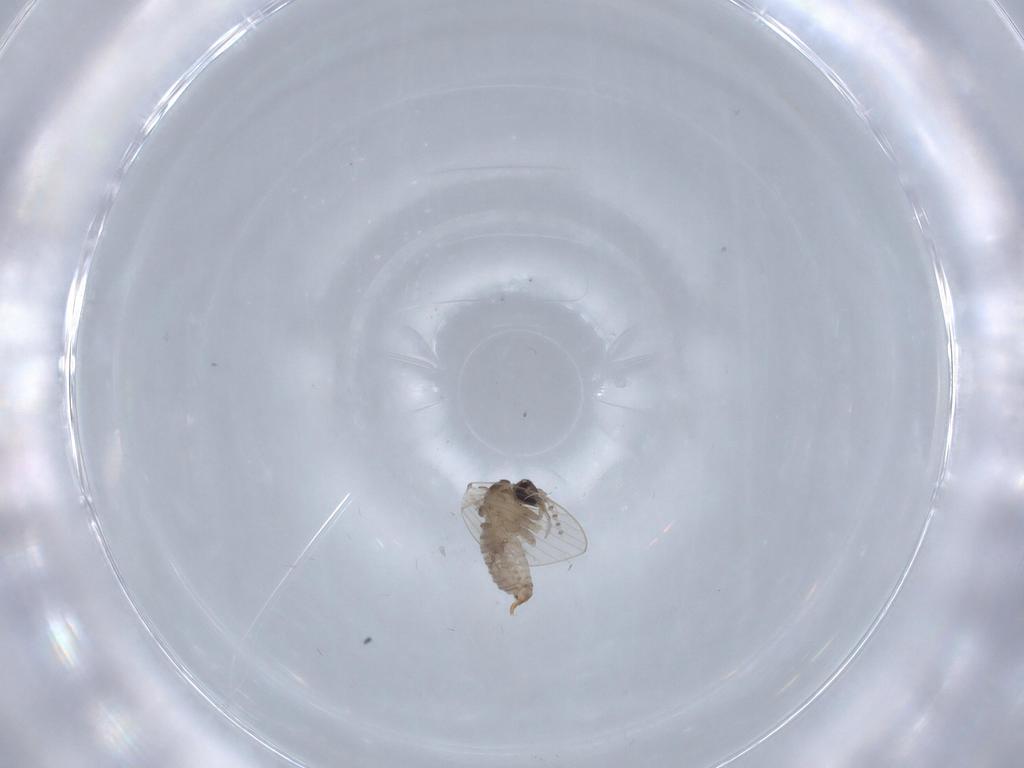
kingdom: Animalia
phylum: Arthropoda
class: Insecta
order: Diptera
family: Psychodidae
